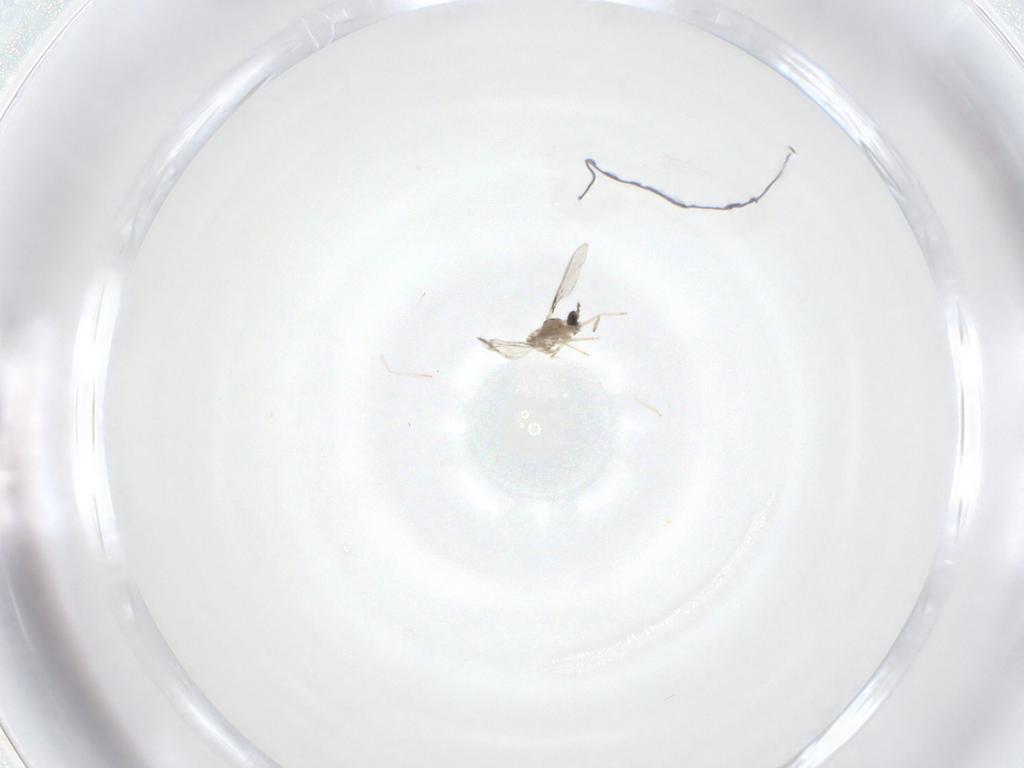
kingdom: Animalia
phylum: Arthropoda
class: Insecta
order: Diptera
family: Cecidomyiidae
